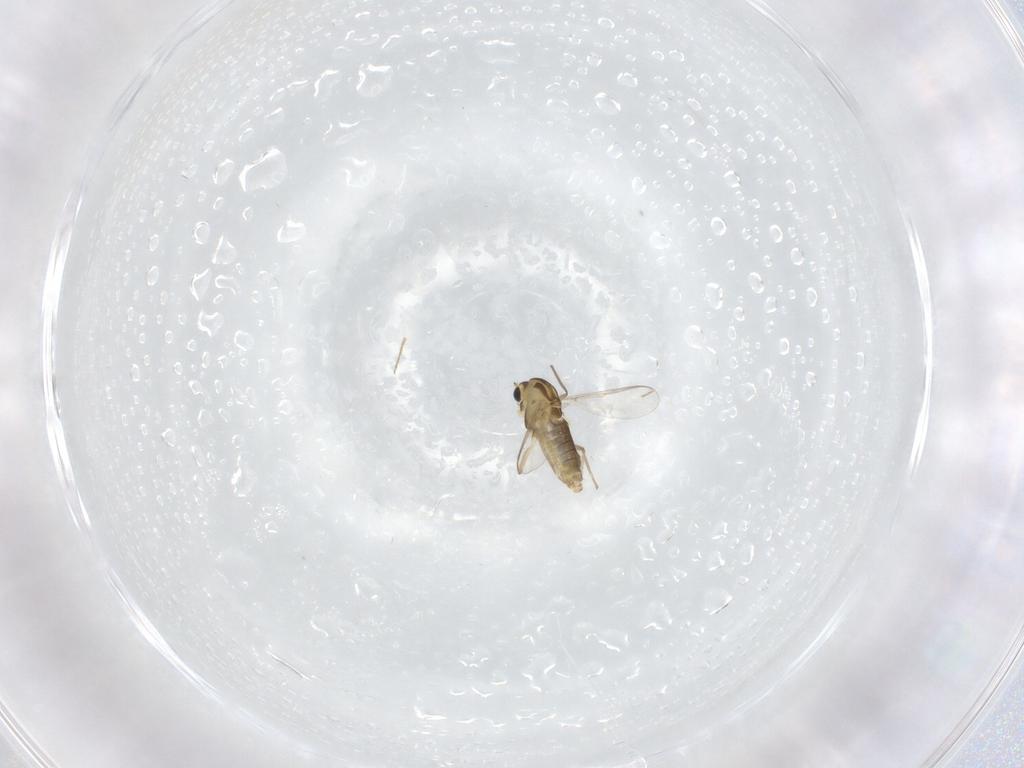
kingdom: Animalia
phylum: Arthropoda
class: Insecta
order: Diptera
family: Chironomidae
